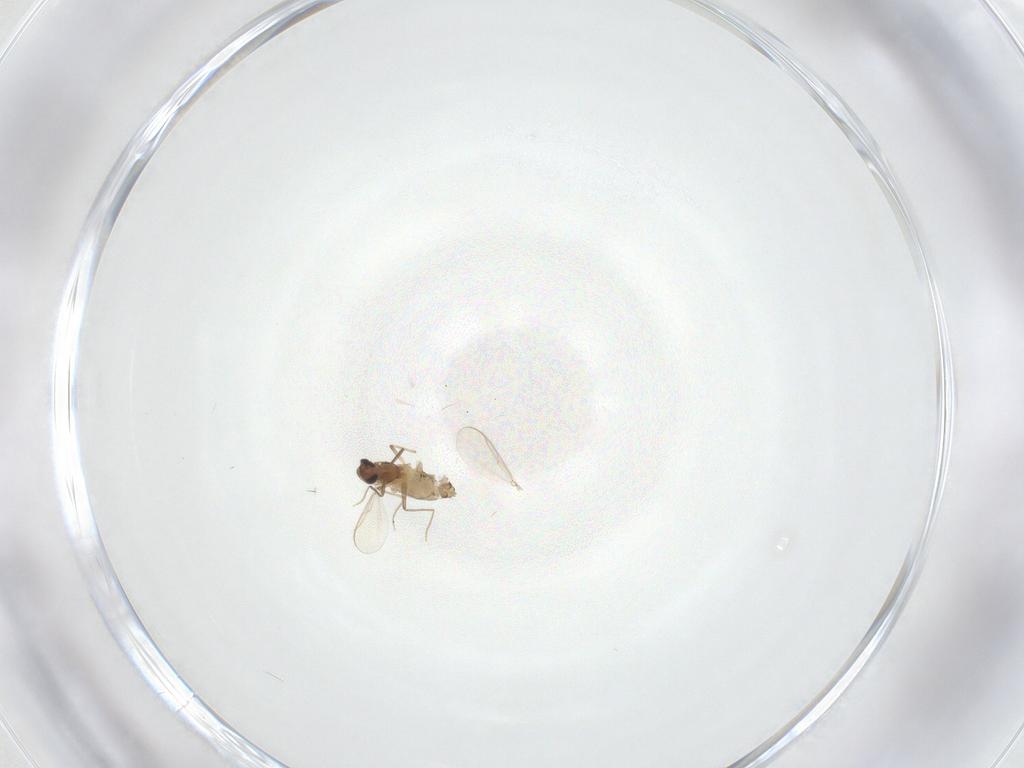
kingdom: Animalia
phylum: Arthropoda
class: Insecta
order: Diptera
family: Chironomidae
